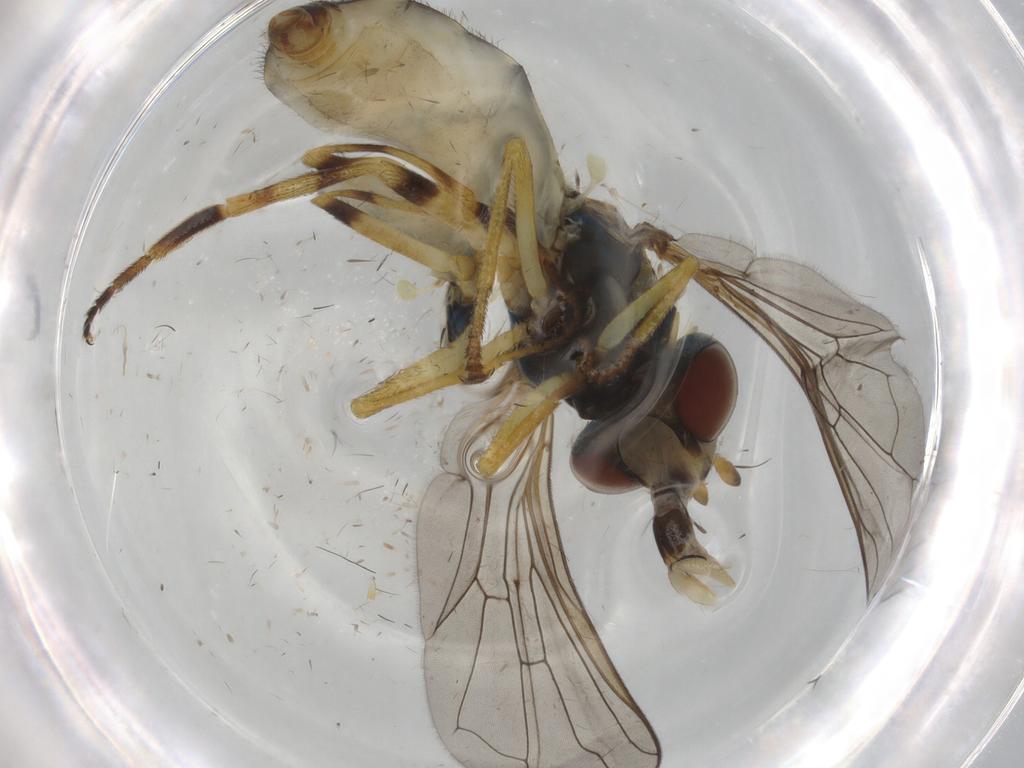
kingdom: Animalia
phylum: Arthropoda
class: Insecta
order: Diptera
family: Syrphidae
